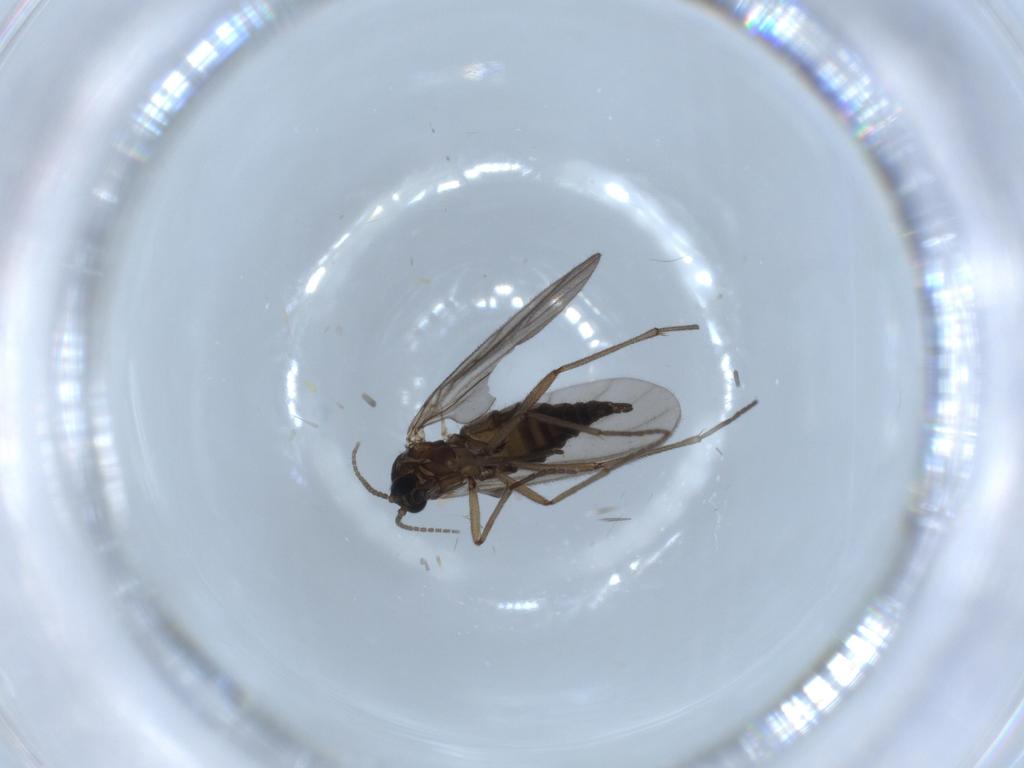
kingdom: Animalia
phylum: Arthropoda
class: Insecta
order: Diptera
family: Sciaridae
